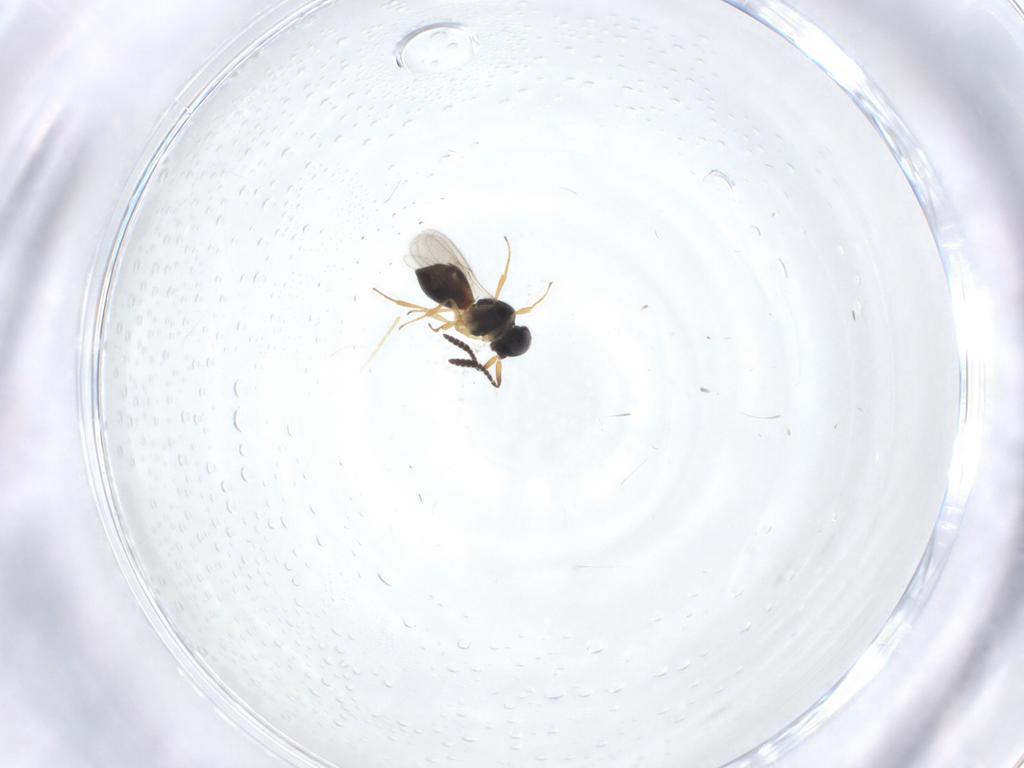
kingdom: Animalia
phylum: Arthropoda
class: Insecta
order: Hymenoptera
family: Scelionidae
